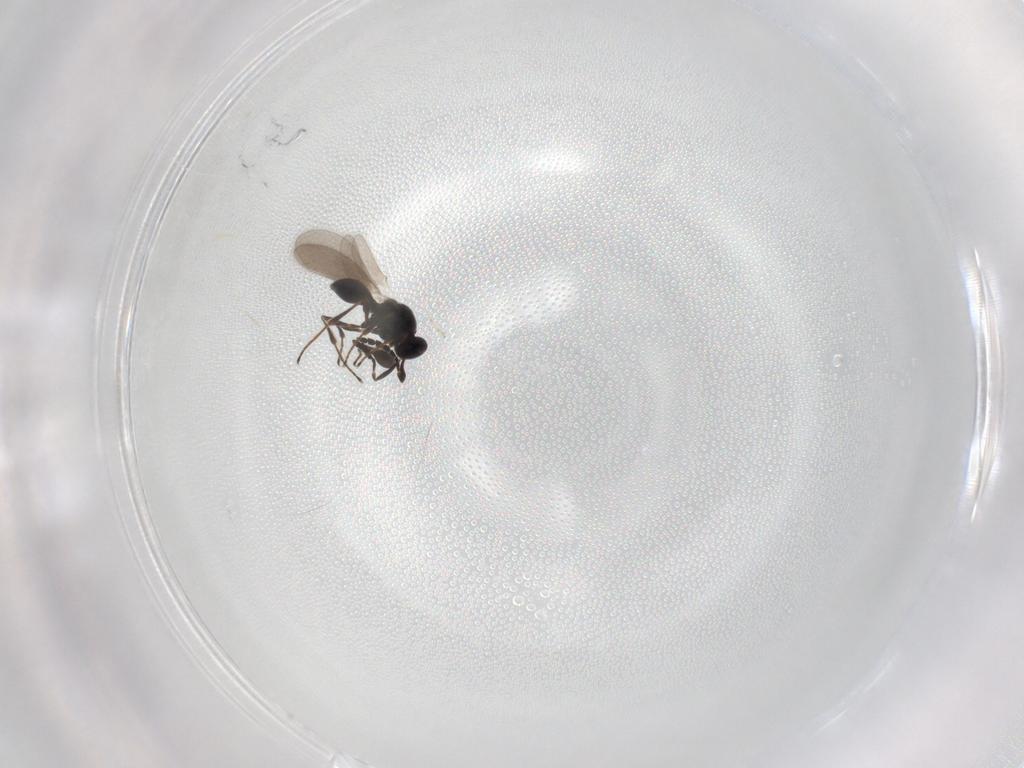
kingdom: Animalia
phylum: Arthropoda
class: Insecta
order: Hymenoptera
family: Platygastridae
